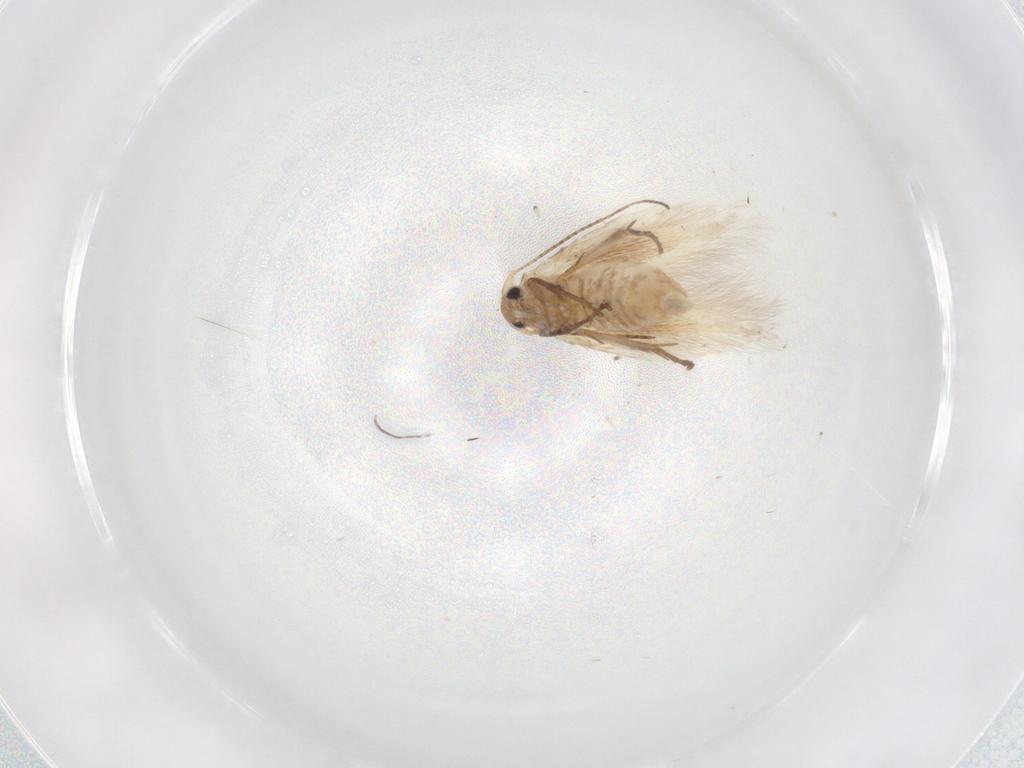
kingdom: Animalia
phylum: Arthropoda
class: Insecta
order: Lepidoptera
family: Bucculatricidae
